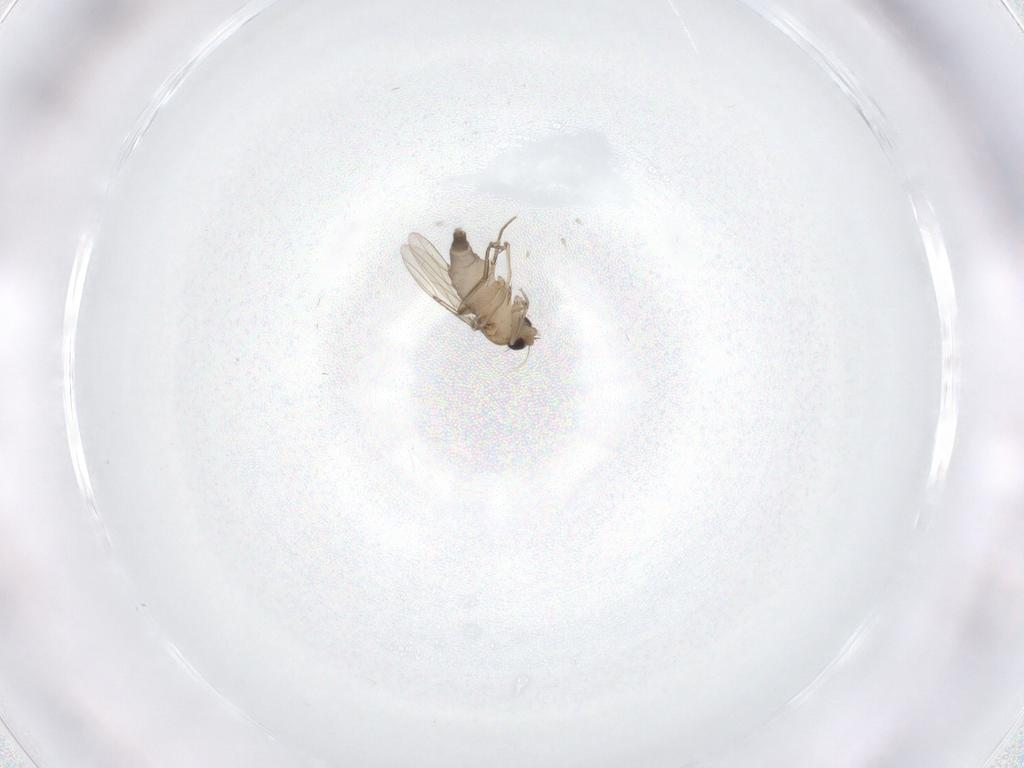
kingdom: Animalia
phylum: Arthropoda
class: Insecta
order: Diptera
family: Phoridae
